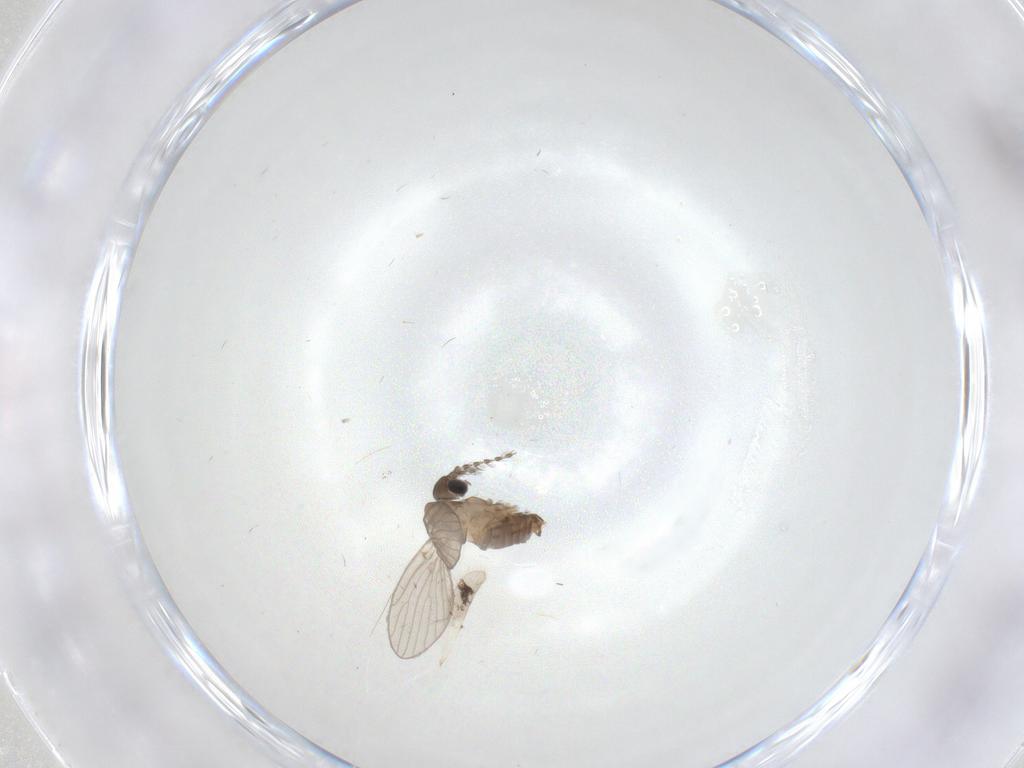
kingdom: Animalia
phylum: Arthropoda
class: Insecta
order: Diptera
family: Psychodidae
